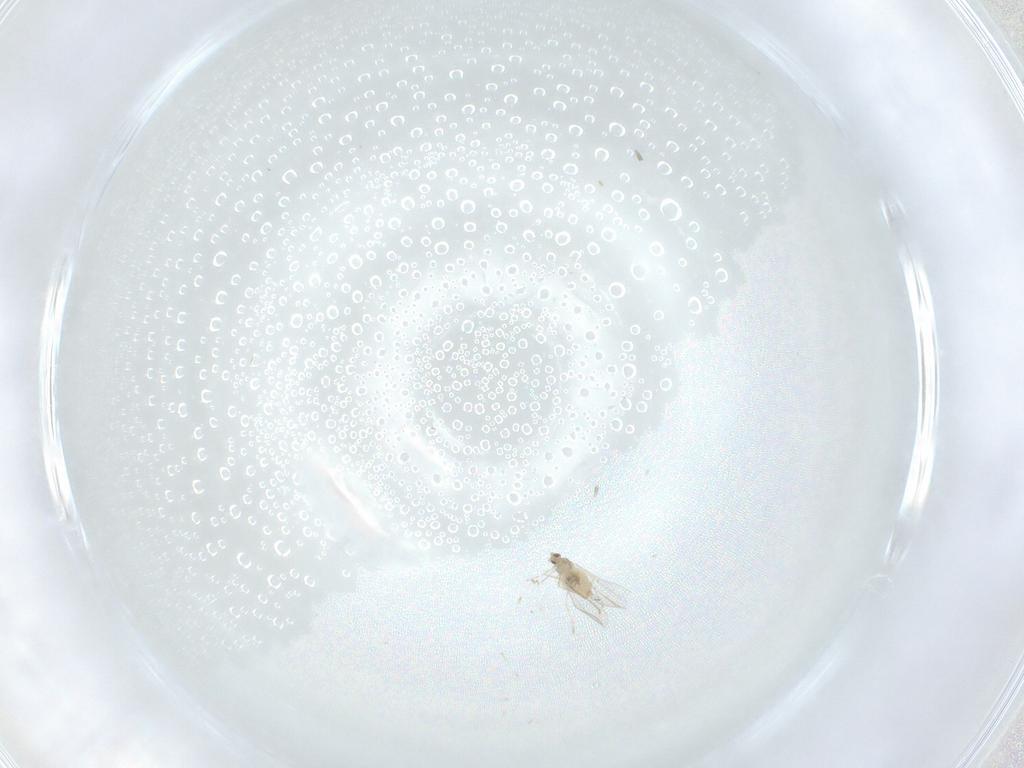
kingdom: Animalia
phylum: Arthropoda
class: Insecta
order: Diptera
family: Cecidomyiidae
